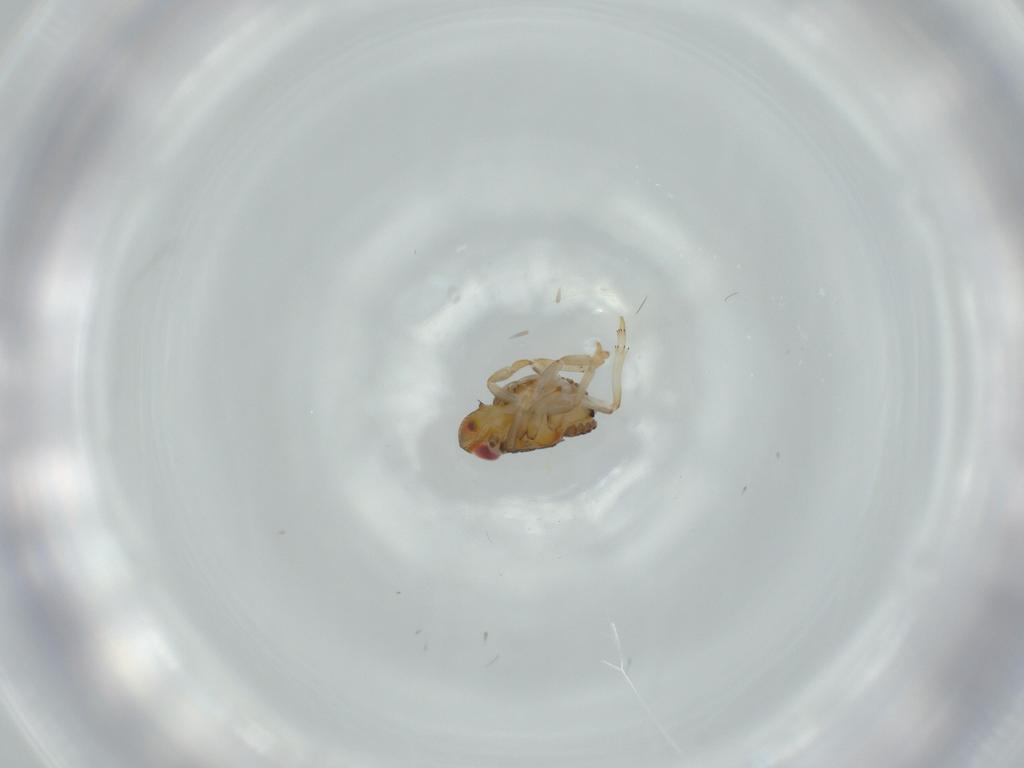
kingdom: Animalia
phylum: Arthropoda
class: Insecta
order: Hemiptera
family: Issidae
